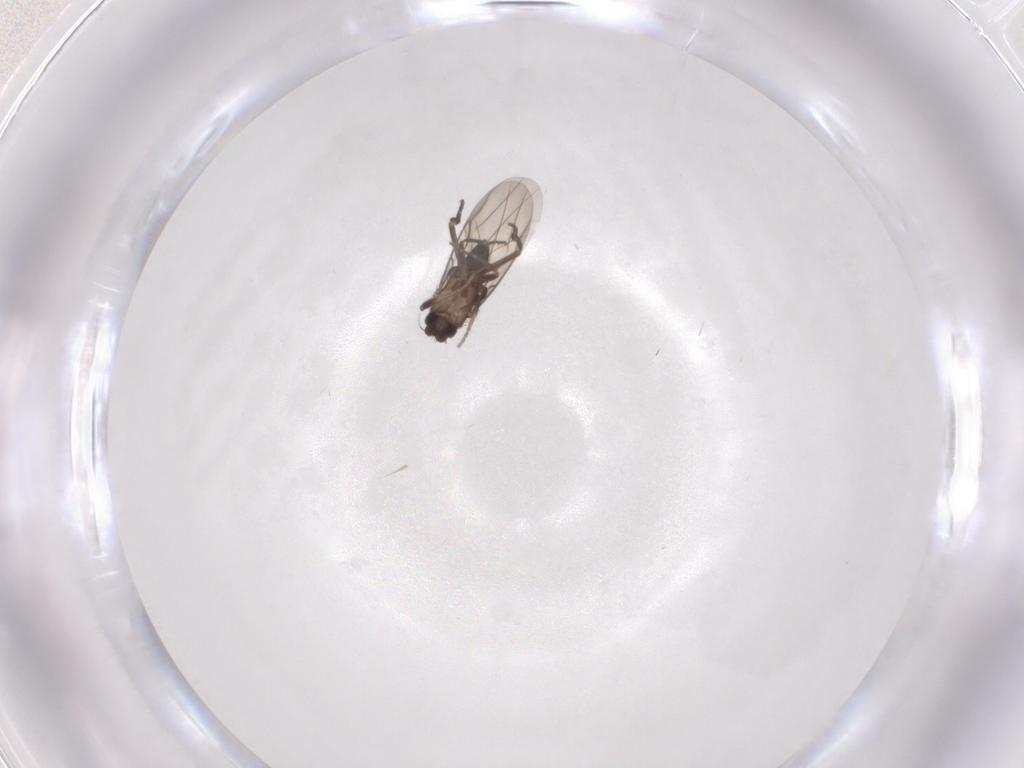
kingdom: Animalia
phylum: Arthropoda
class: Insecta
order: Diptera
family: Phoridae
